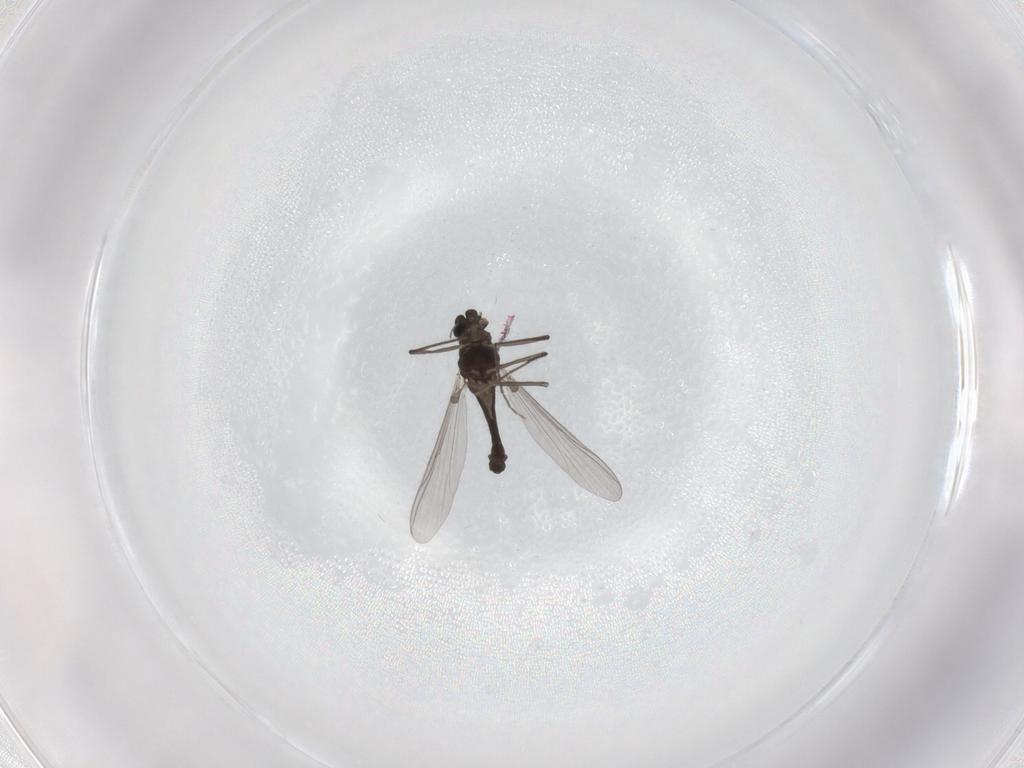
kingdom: Animalia
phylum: Arthropoda
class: Insecta
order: Diptera
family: Chironomidae
